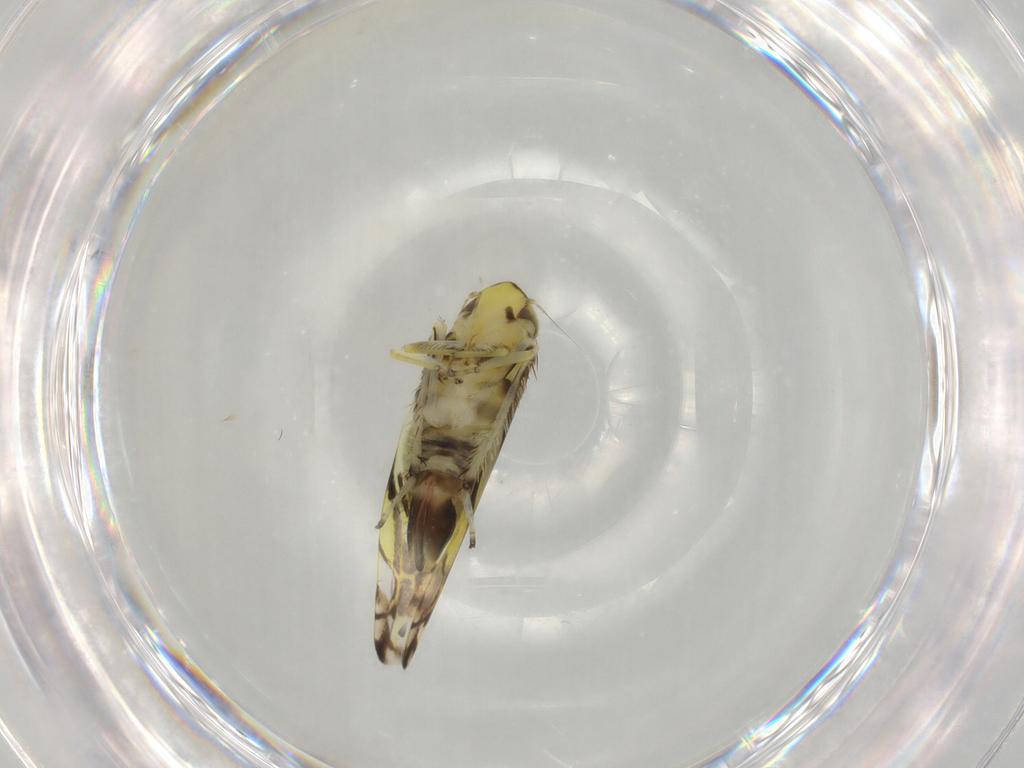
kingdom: Animalia
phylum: Arthropoda
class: Insecta
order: Hemiptera
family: Cicadellidae
